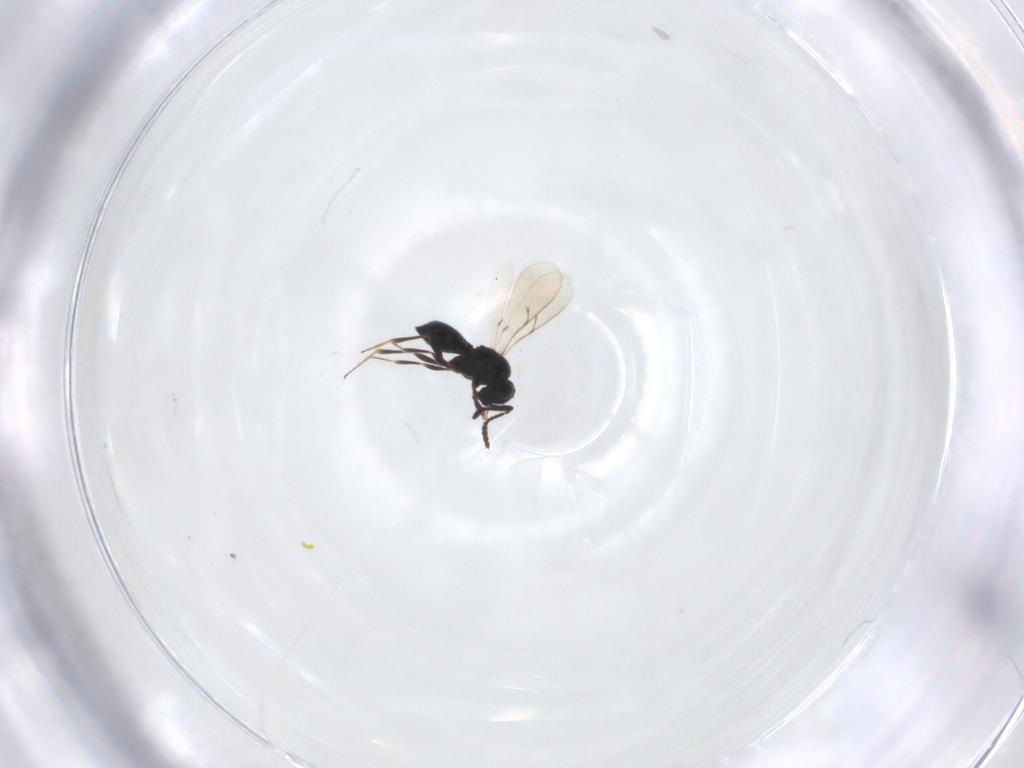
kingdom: Animalia
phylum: Arthropoda
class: Insecta
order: Hymenoptera
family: Scelionidae
